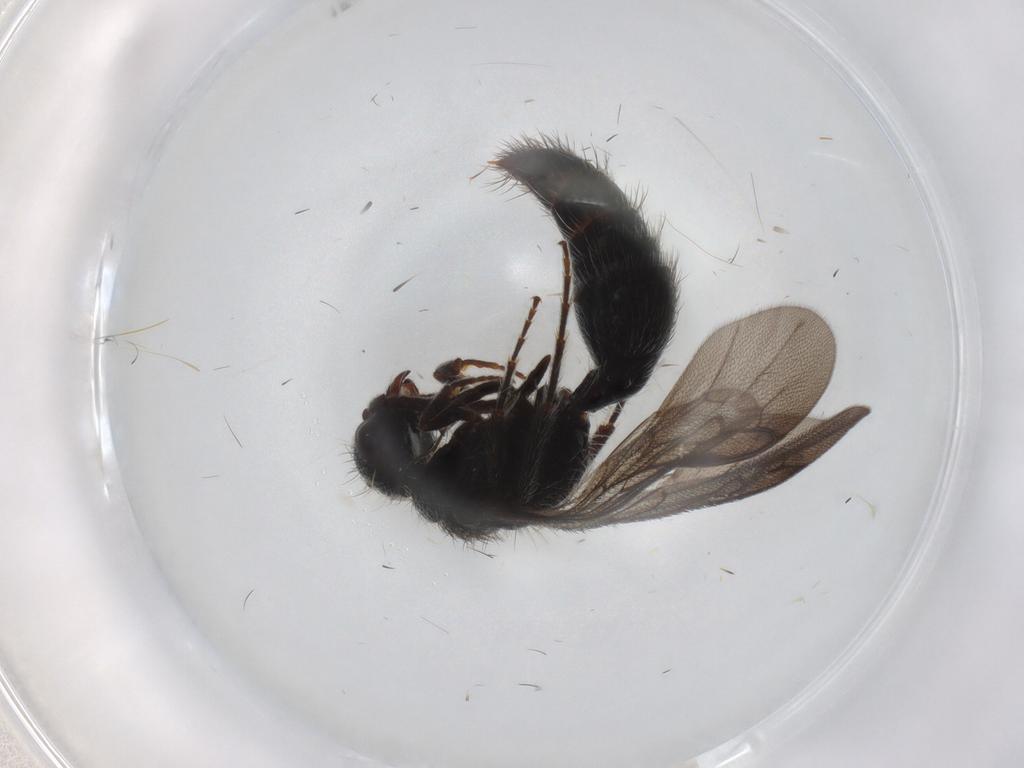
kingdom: Animalia
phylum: Arthropoda
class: Insecta
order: Hymenoptera
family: Mutillidae
